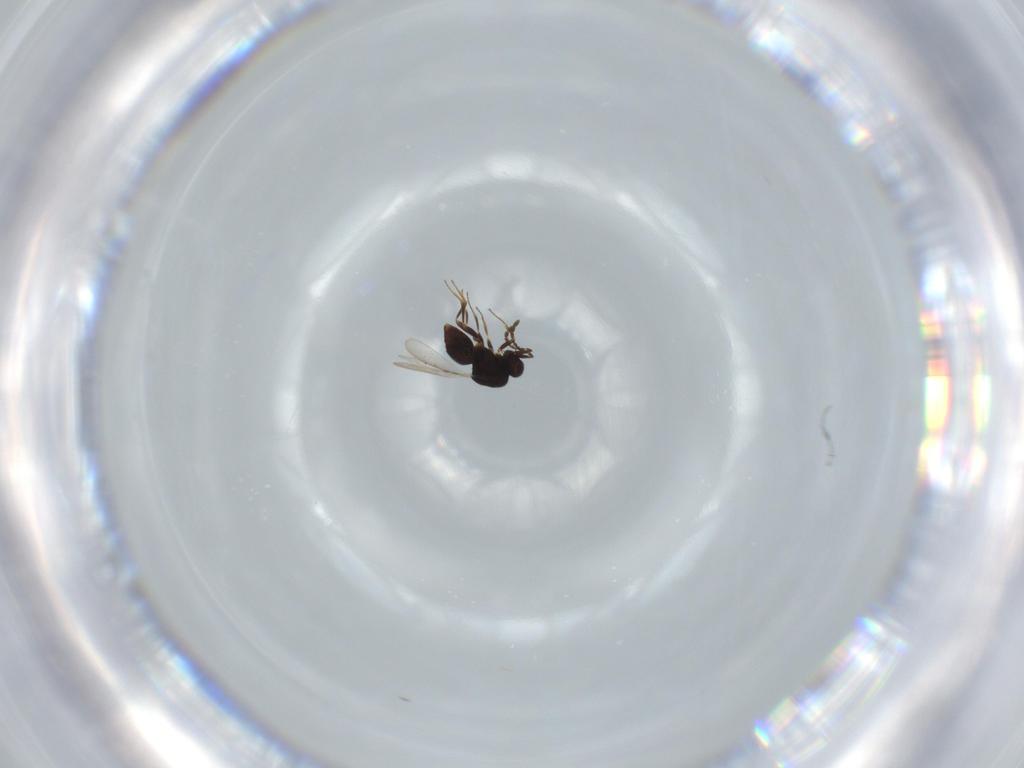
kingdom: Animalia
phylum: Arthropoda
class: Insecta
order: Hymenoptera
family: Ceraphronidae
